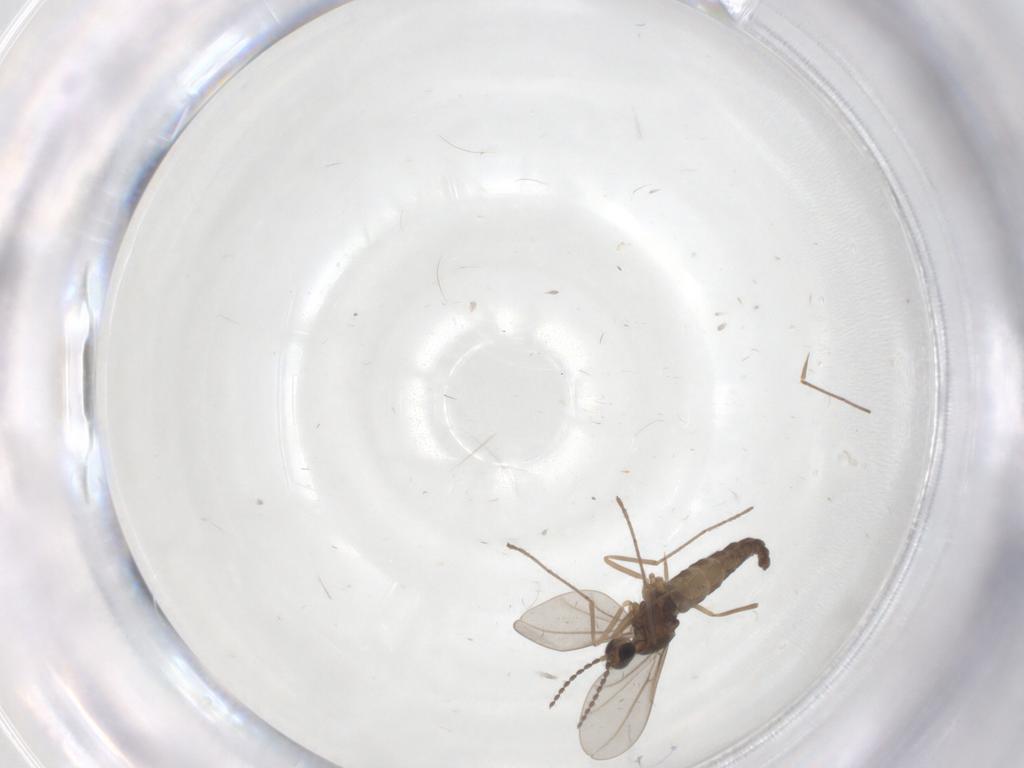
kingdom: Animalia
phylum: Arthropoda
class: Insecta
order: Diptera
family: Cecidomyiidae
